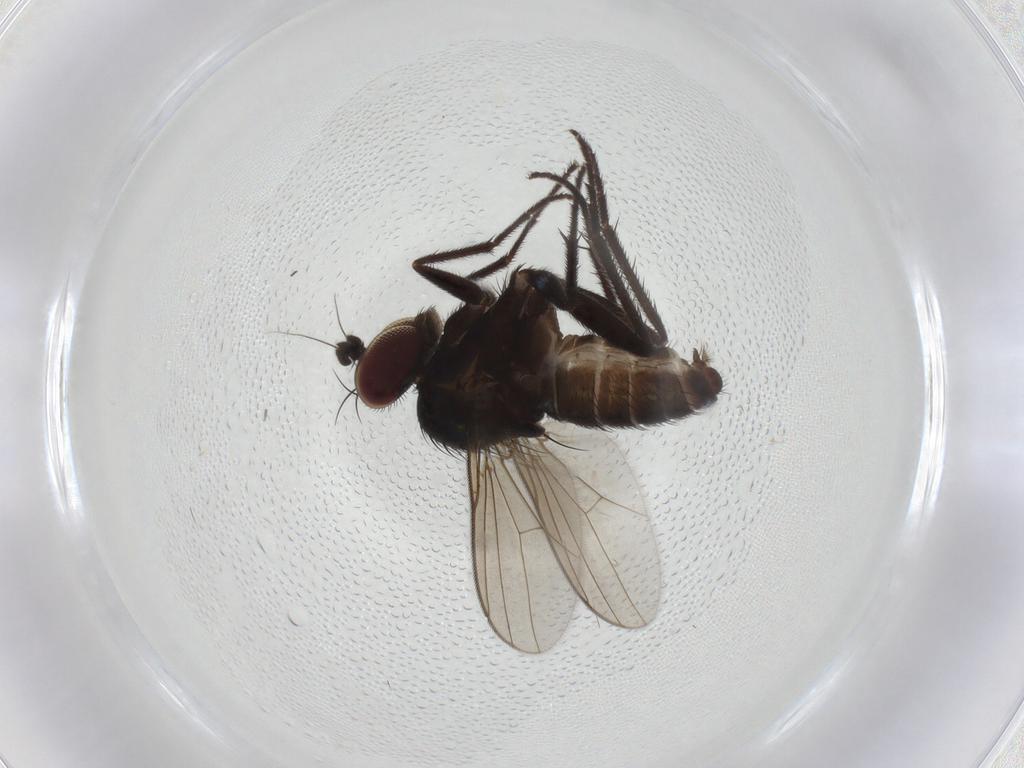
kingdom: Animalia
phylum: Arthropoda
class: Insecta
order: Diptera
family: Dolichopodidae
